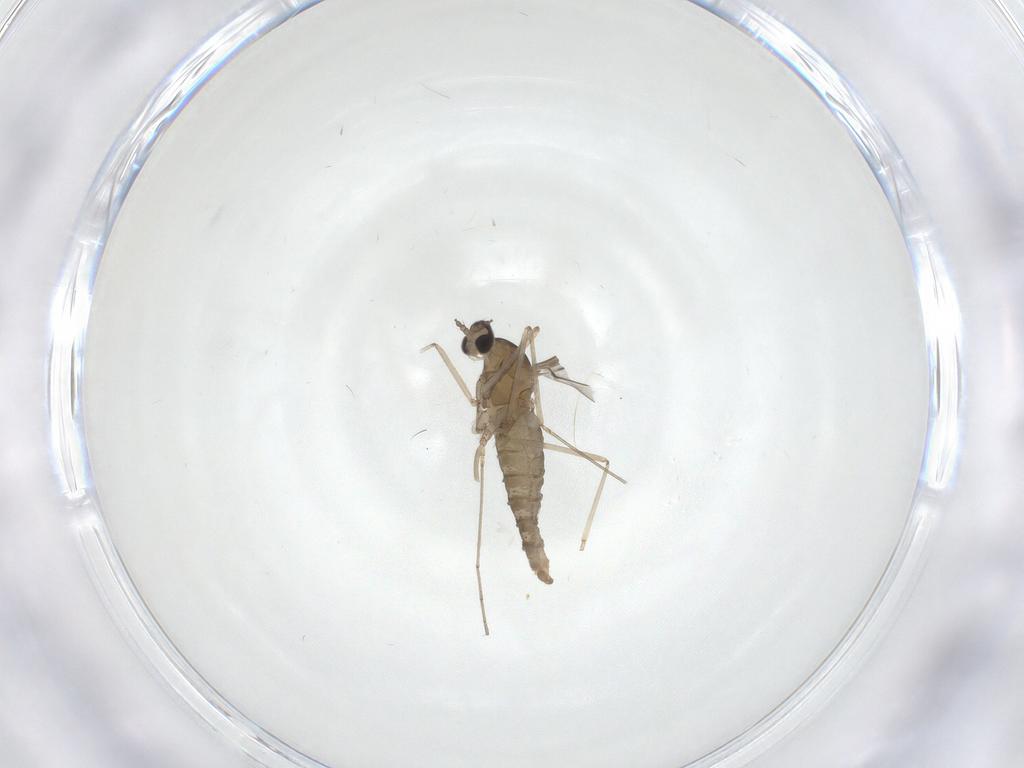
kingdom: Animalia
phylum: Arthropoda
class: Insecta
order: Diptera
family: Cecidomyiidae
